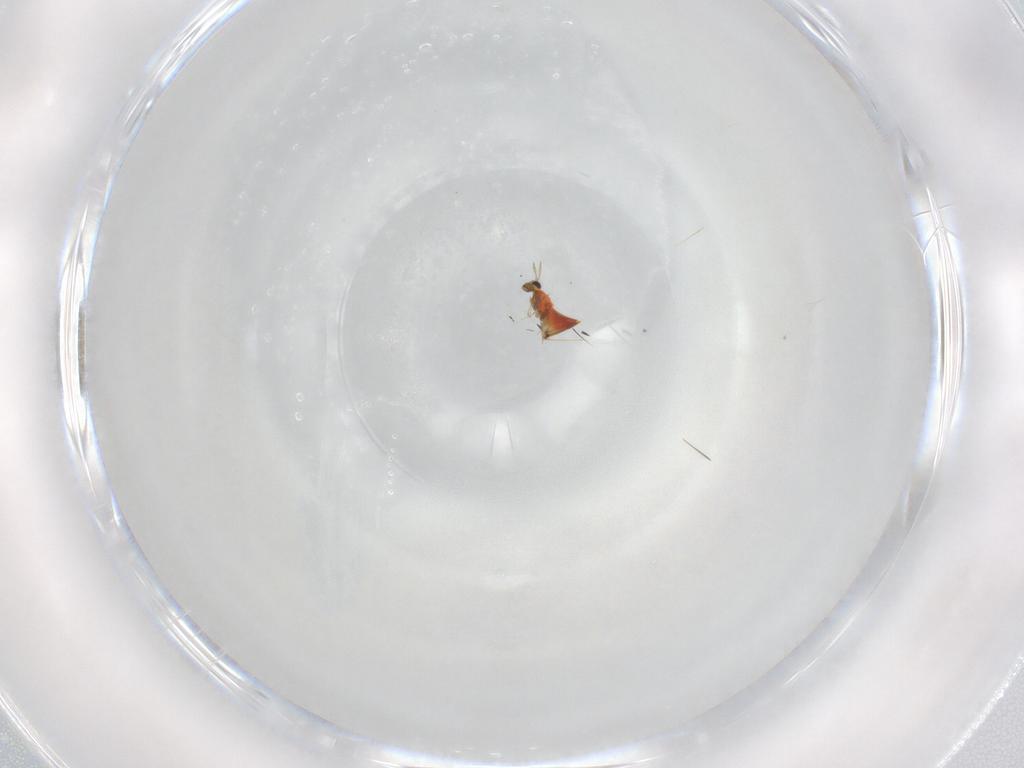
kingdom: Animalia
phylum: Arthropoda
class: Insecta
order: Hymenoptera
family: Trichogrammatidae
